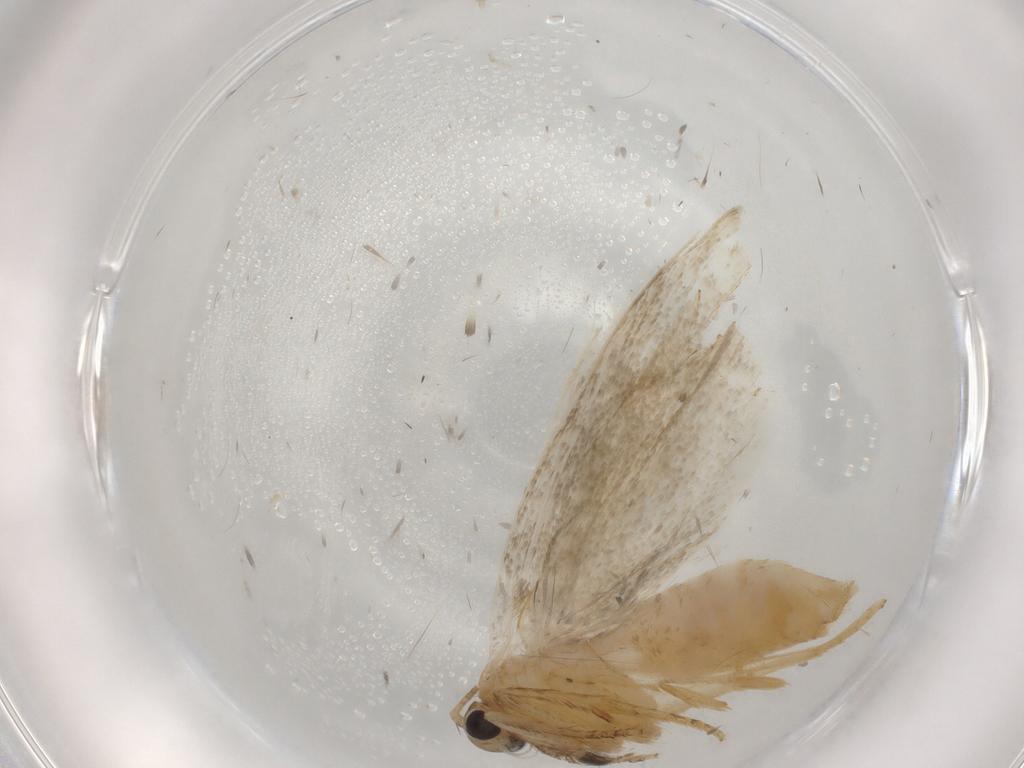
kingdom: Animalia
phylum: Arthropoda
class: Insecta
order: Lepidoptera
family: Tortricidae
